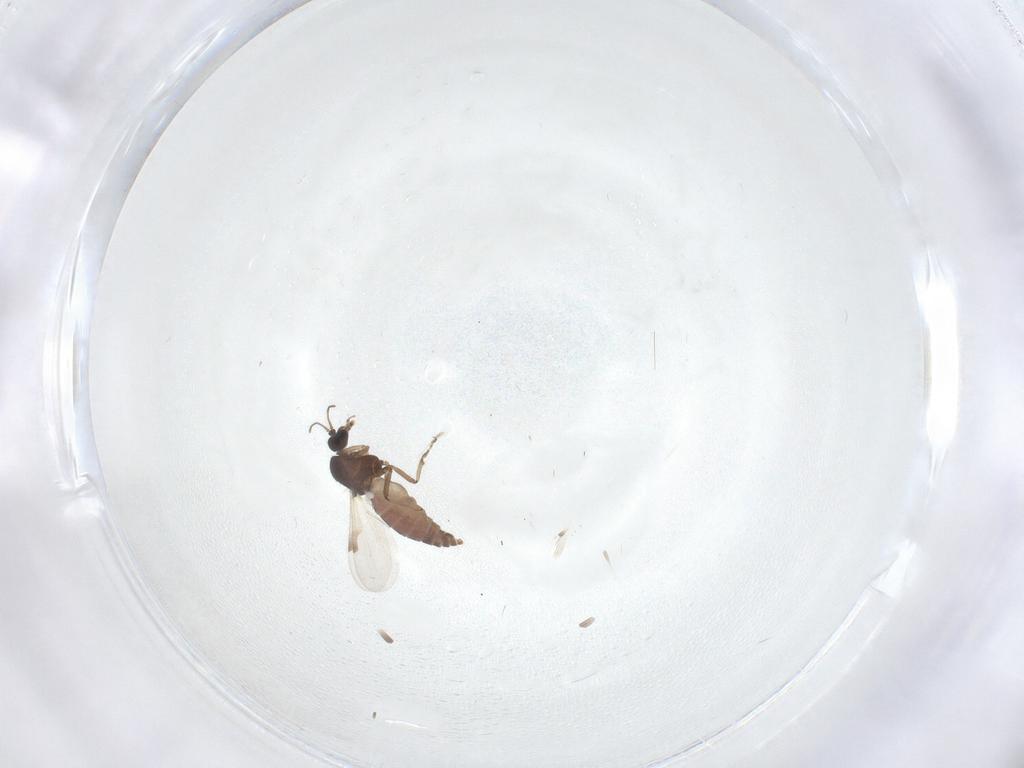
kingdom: Animalia
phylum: Arthropoda
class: Insecta
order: Diptera
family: Ceratopogonidae
